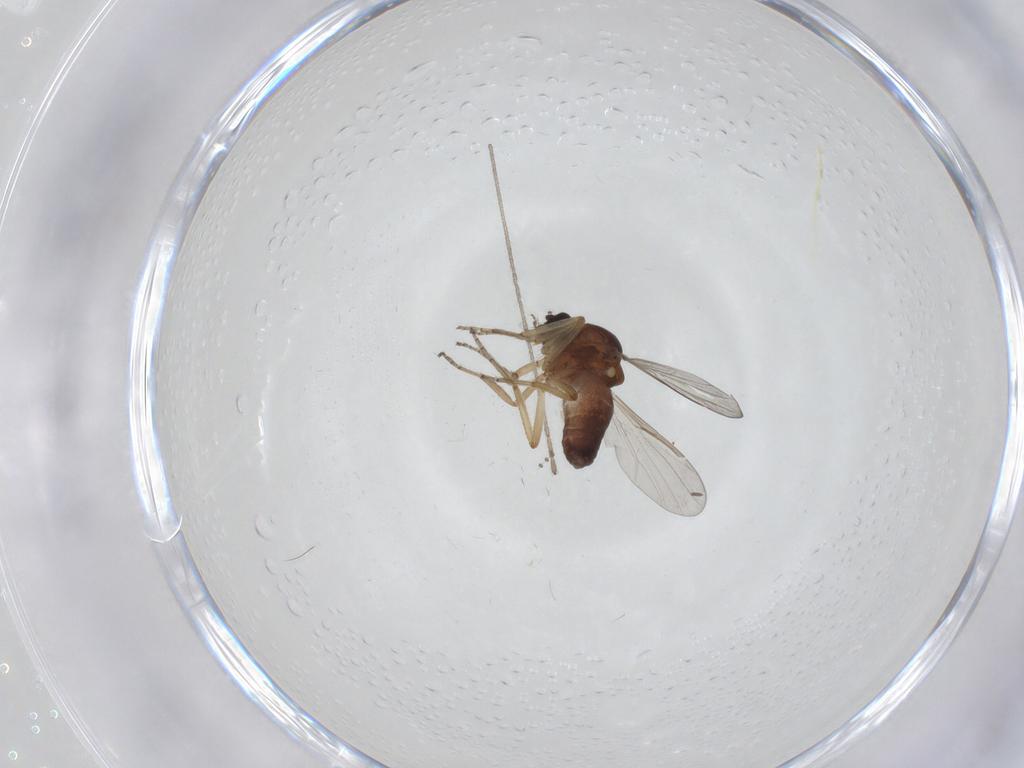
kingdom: Animalia
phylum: Arthropoda
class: Insecta
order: Diptera
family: Ceratopogonidae
